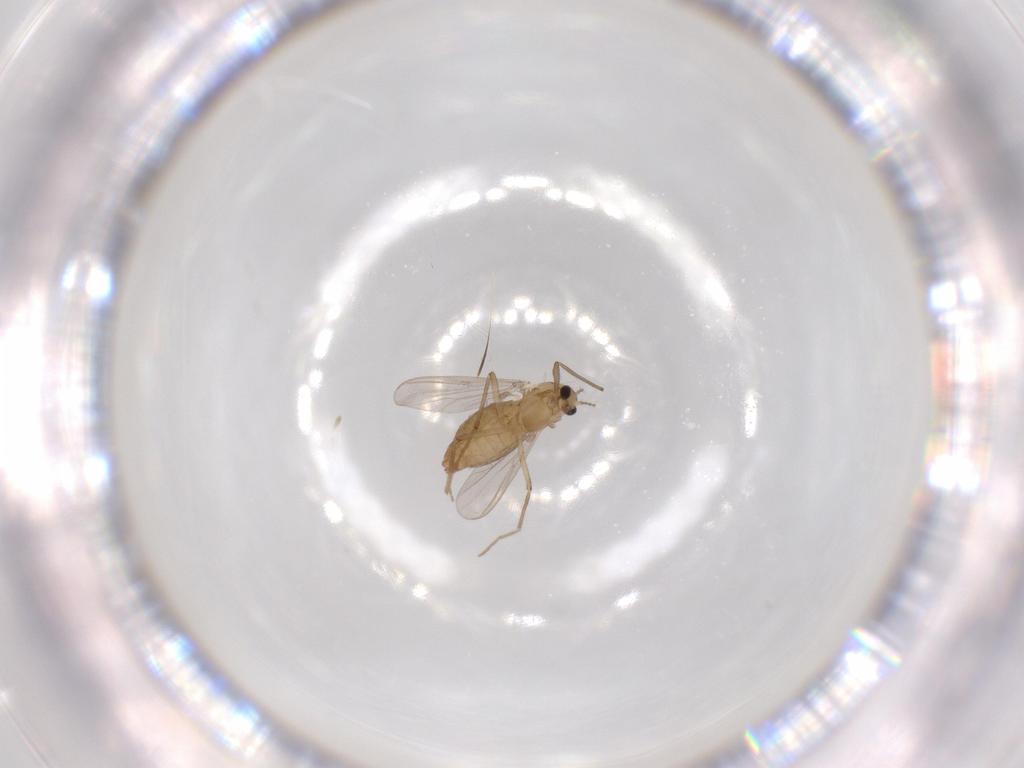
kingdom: Animalia
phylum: Arthropoda
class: Insecta
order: Diptera
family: Chironomidae
